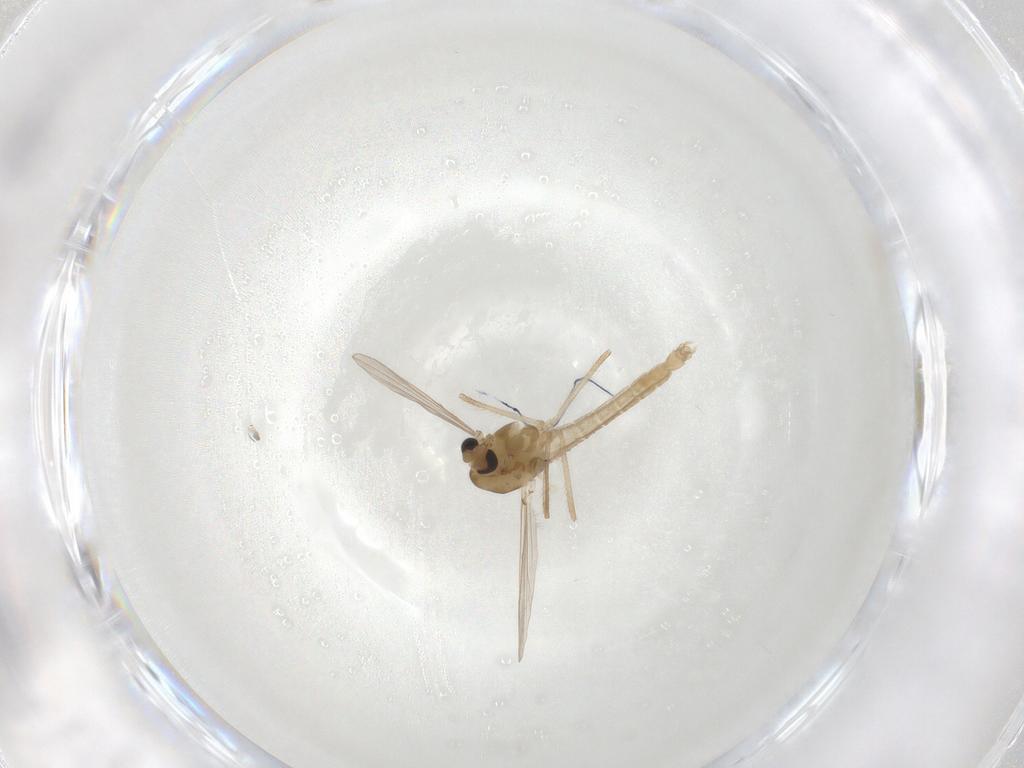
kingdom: Animalia
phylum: Arthropoda
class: Insecta
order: Diptera
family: Chironomidae
